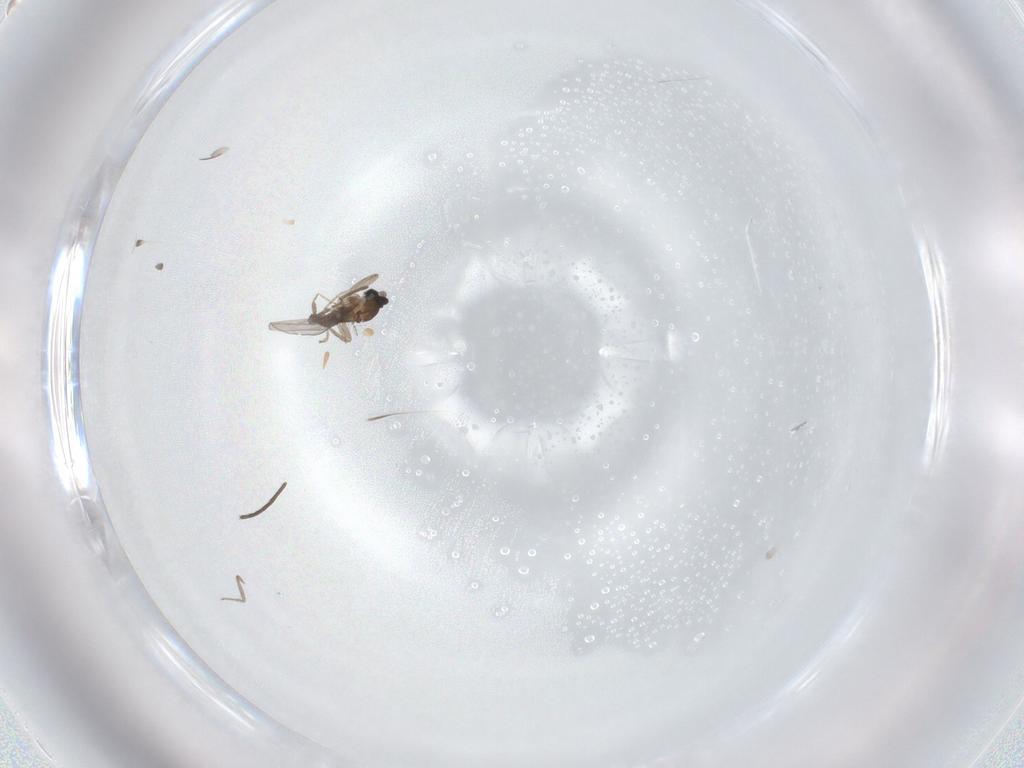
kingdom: Animalia
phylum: Arthropoda
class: Insecta
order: Diptera
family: Cecidomyiidae
